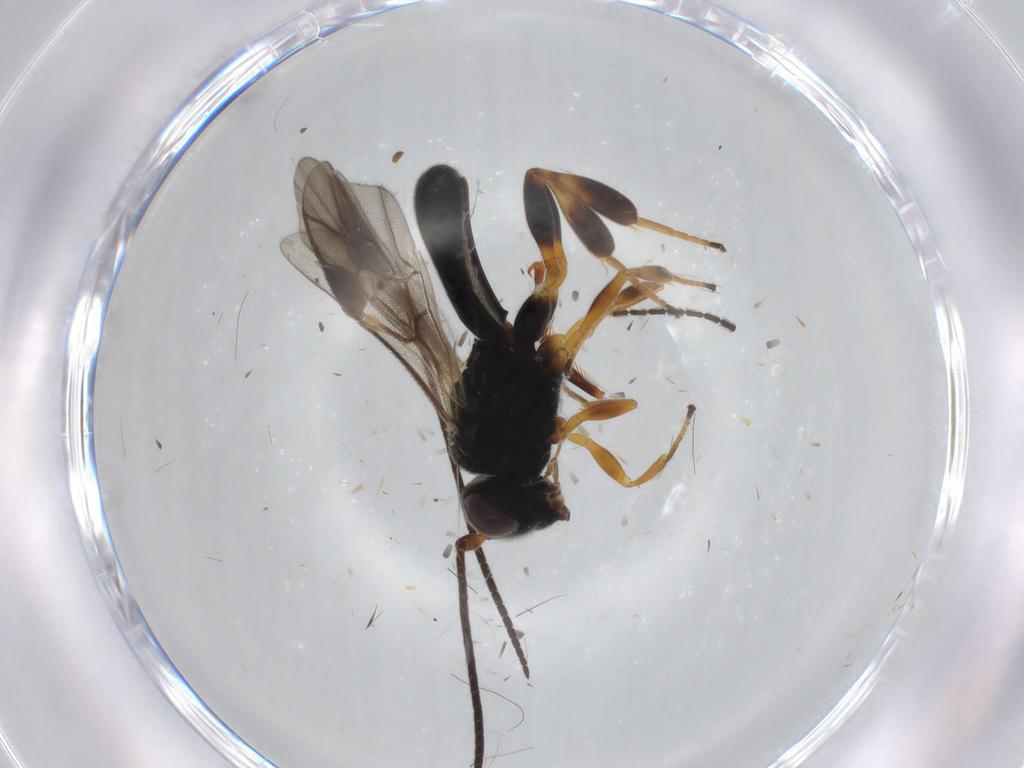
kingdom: Animalia
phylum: Arthropoda
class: Insecta
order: Hymenoptera
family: Braconidae
